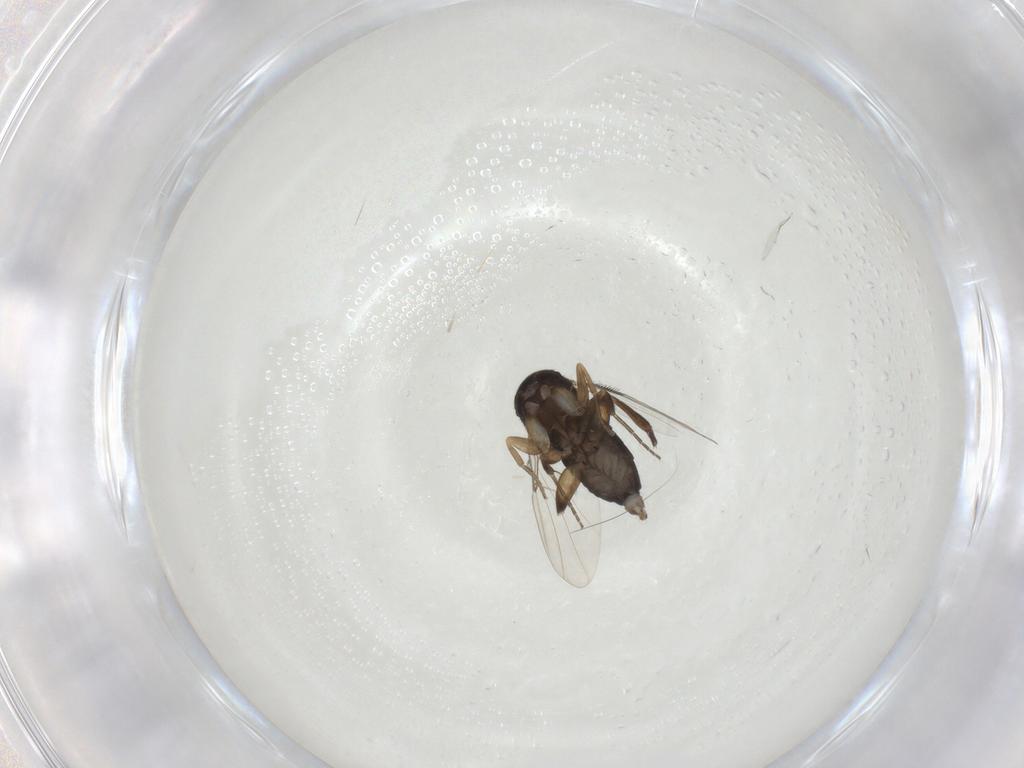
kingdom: Animalia
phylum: Arthropoda
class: Insecta
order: Diptera
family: Phoridae
